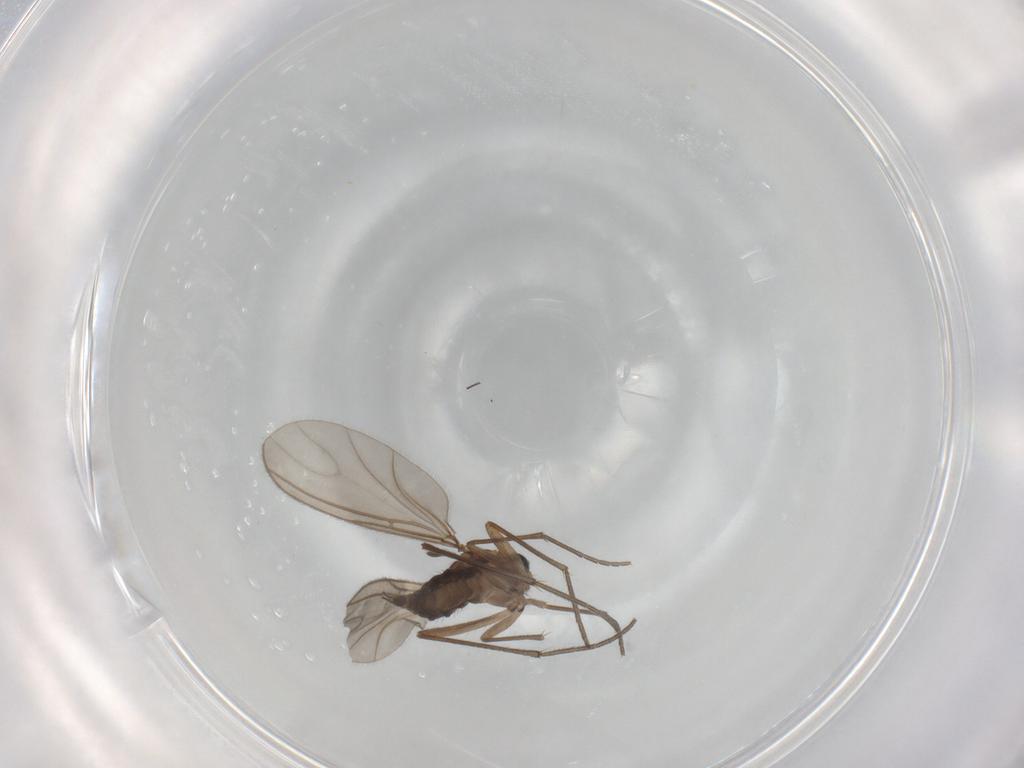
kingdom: Animalia
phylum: Arthropoda
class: Insecta
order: Diptera
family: Sciaridae
